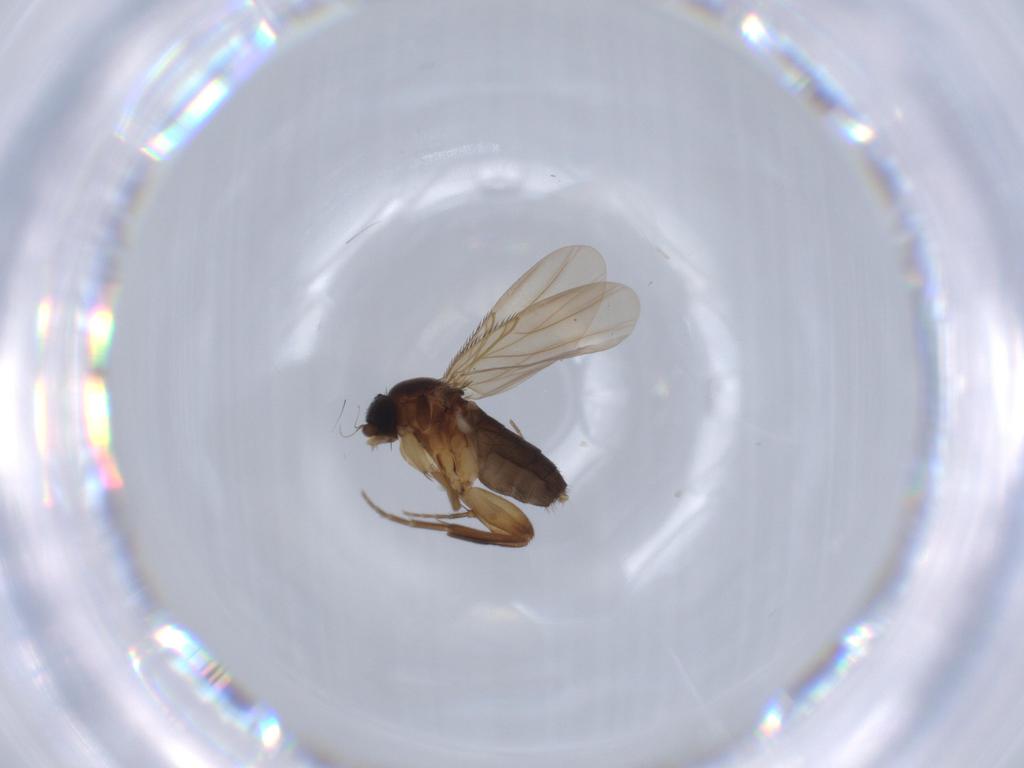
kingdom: Animalia
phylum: Arthropoda
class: Insecta
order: Diptera
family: Phoridae
